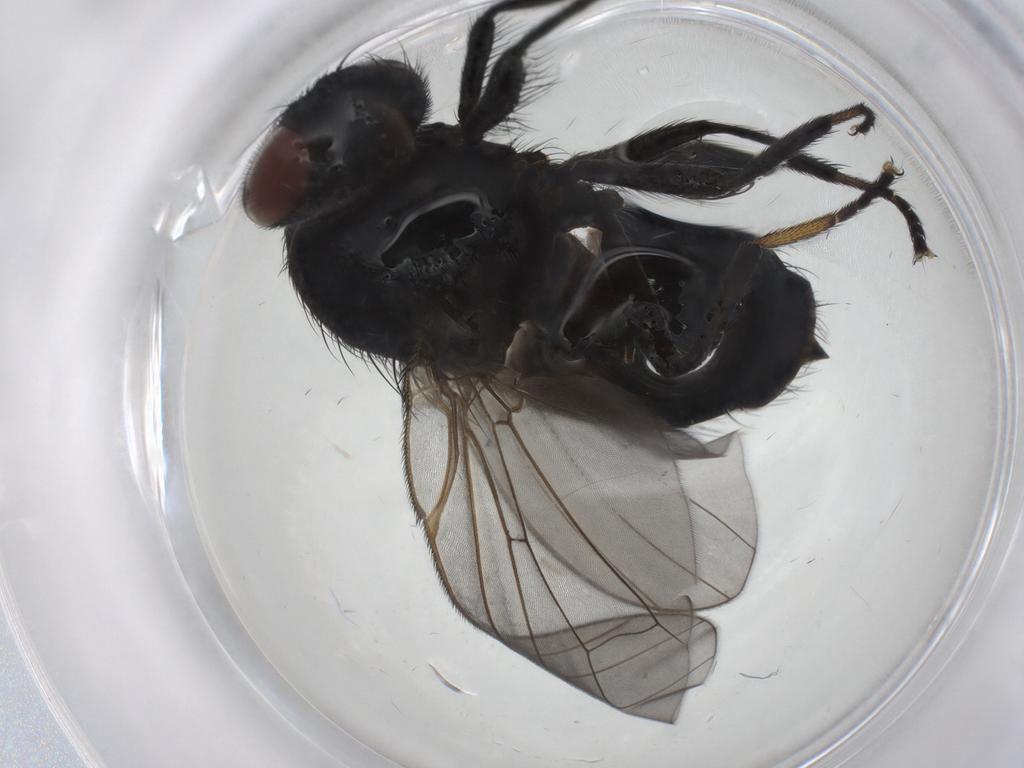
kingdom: Animalia
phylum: Arthropoda
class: Insecta
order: Diptera
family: Lonchaeidae
